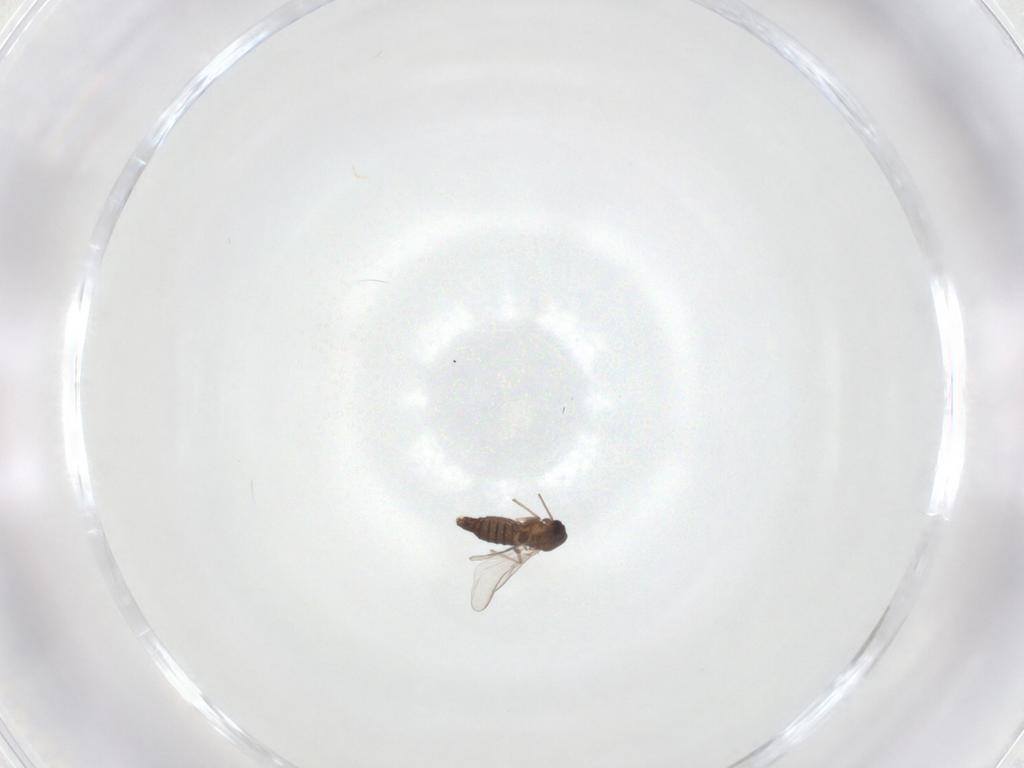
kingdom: Animalia
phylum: Arthropoda
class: Insecta
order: Diptera
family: Chironomidae
